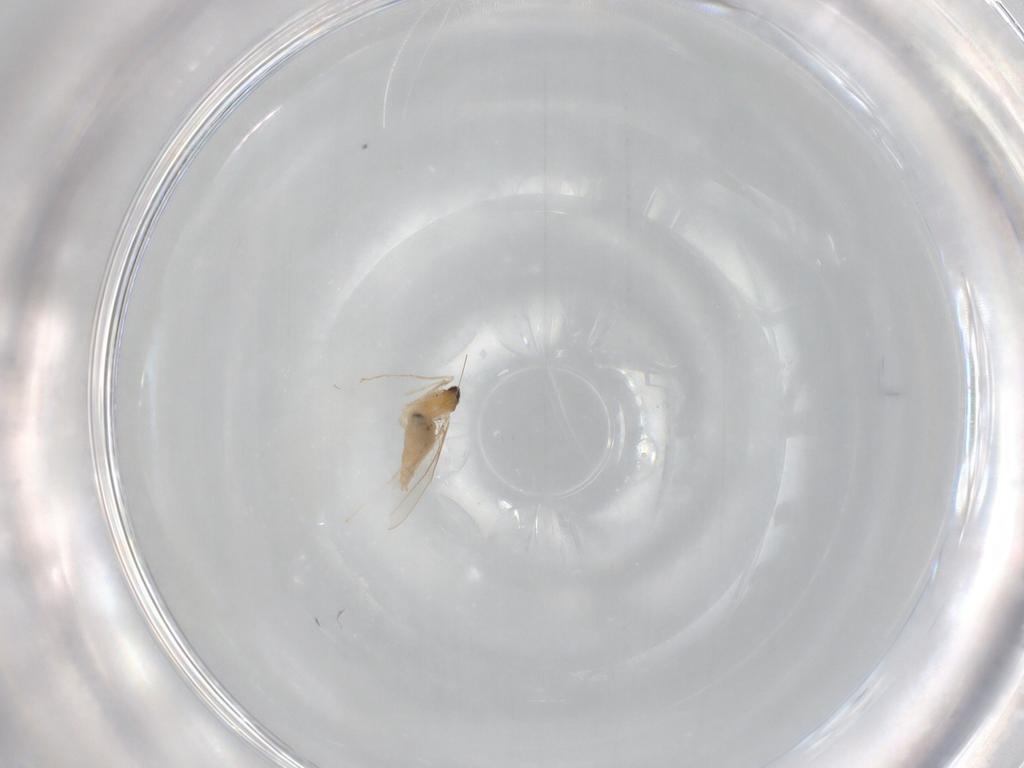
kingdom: Animalia
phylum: Arthropoda
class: Insecta
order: Diptera
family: Cecidomyiidae
